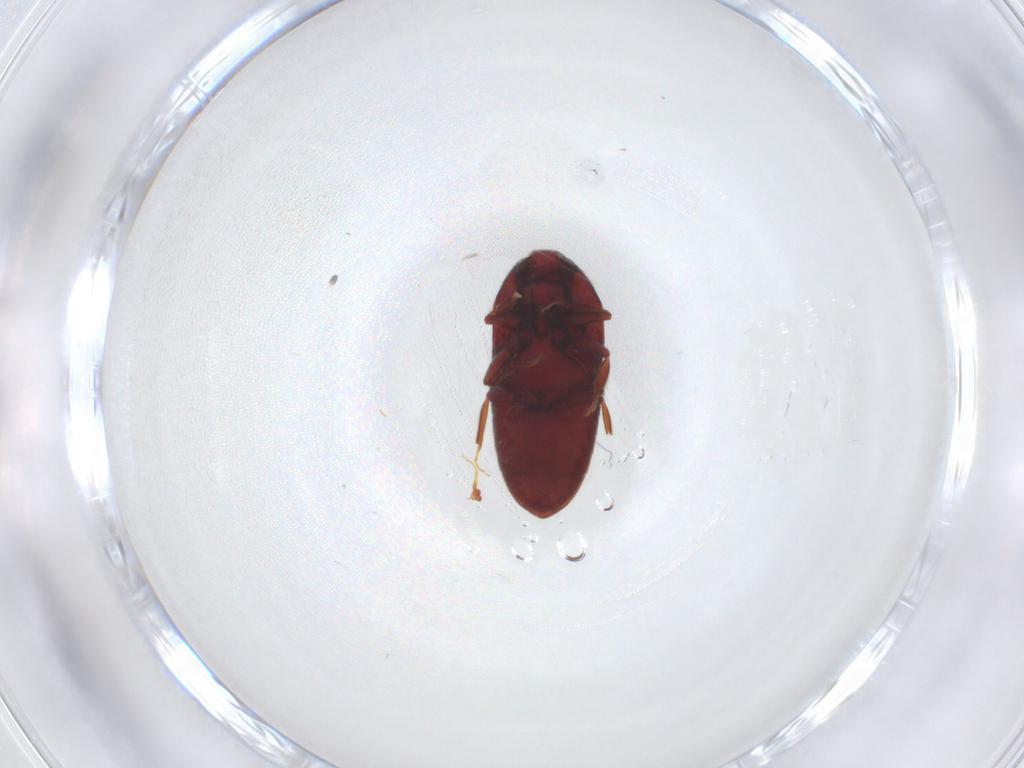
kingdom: Animalia
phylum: Arthropoda
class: Insecta
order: Coleoptera
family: Throscidae
